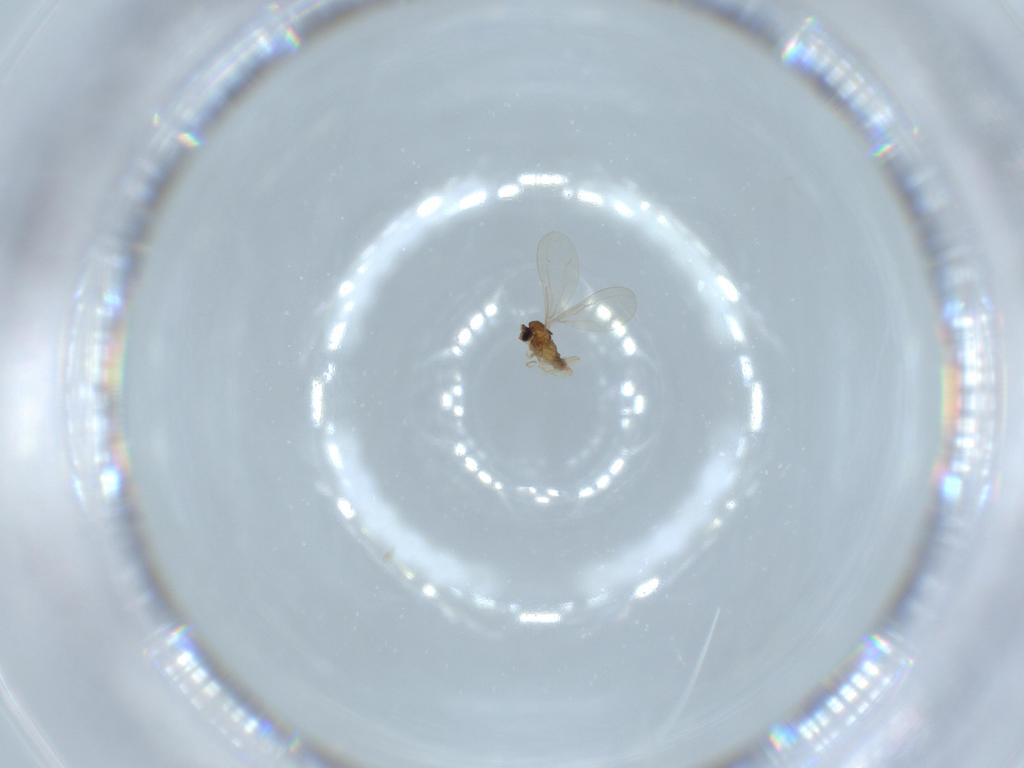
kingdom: Animalia
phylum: Arthropoda
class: Insecta
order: Diptera
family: Cecidomyiidae
